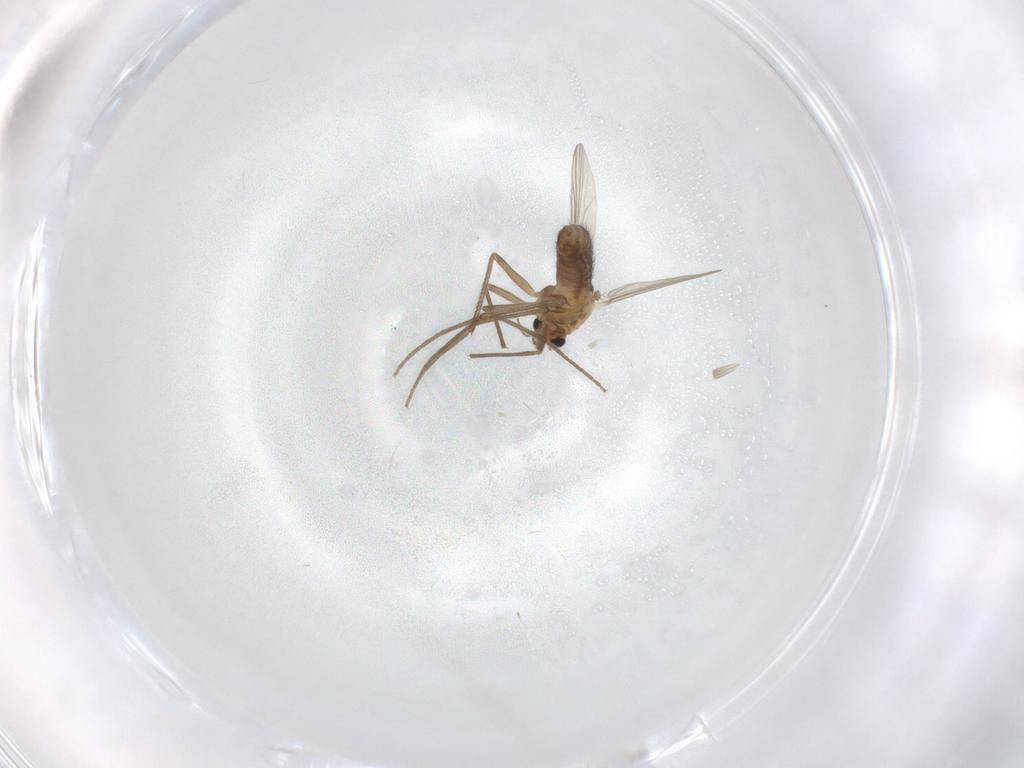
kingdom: Animalia
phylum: Arthropoda
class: Insecta
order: Diptera
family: Chironomidae
